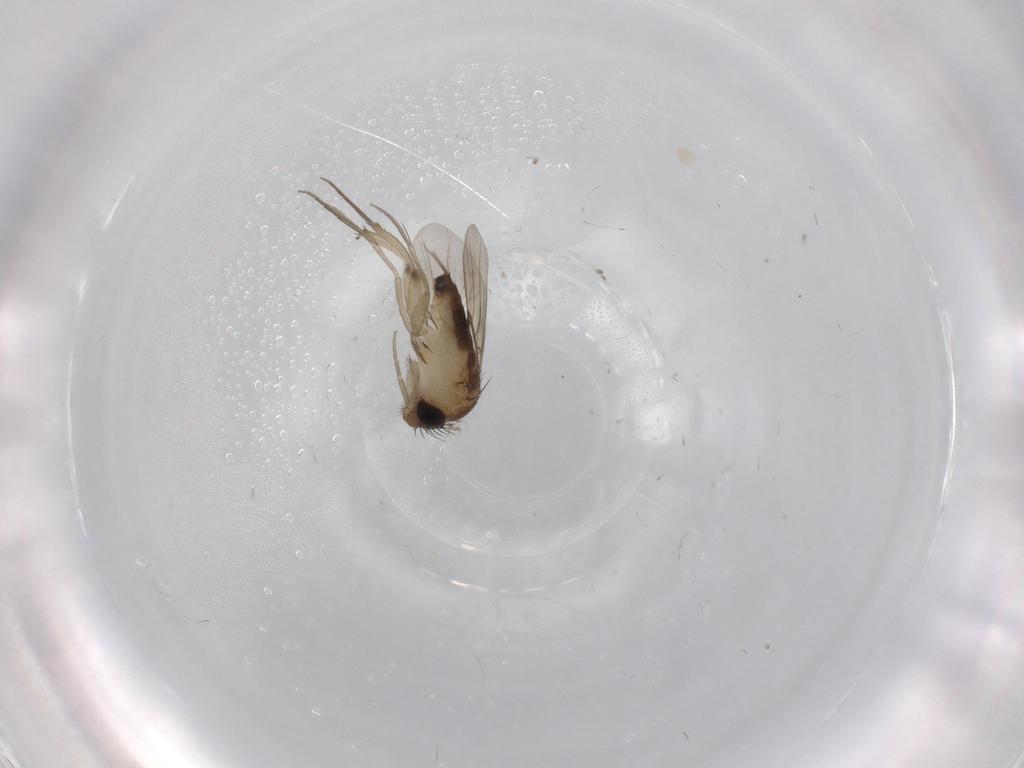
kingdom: Animalia
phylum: Arthropoda
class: Insecta
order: Diptera
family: Phoridae
